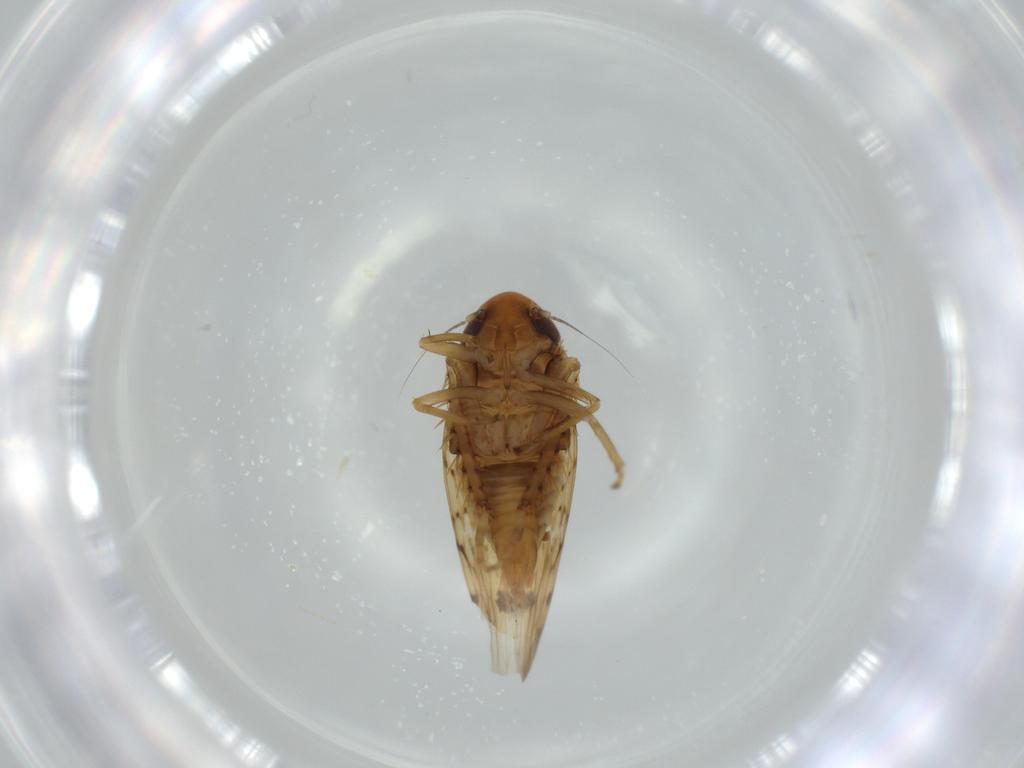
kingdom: Animalia
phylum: Arthropoda
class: Insecta
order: Hemiptera
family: Cicadellidae
